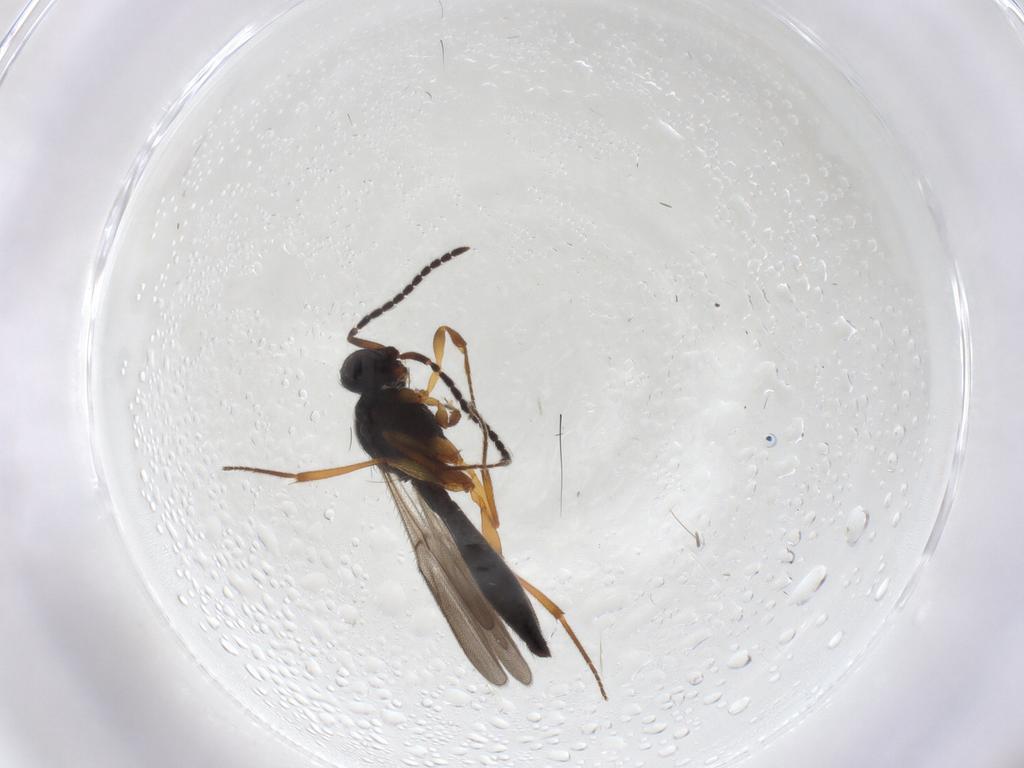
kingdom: Animalia
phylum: Arthropoda
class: Insecta
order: Hymenoptera
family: Scelionidae
